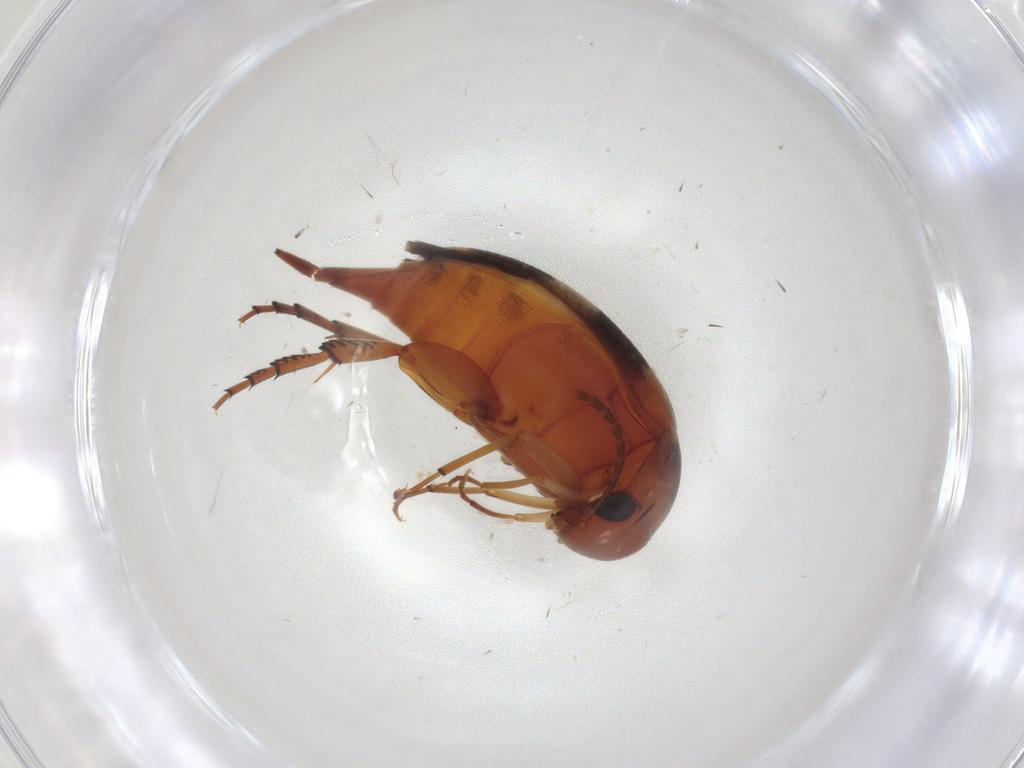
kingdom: Animalia
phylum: Arthropoda
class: Insecta
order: Coleoptera
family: Mordellidae
